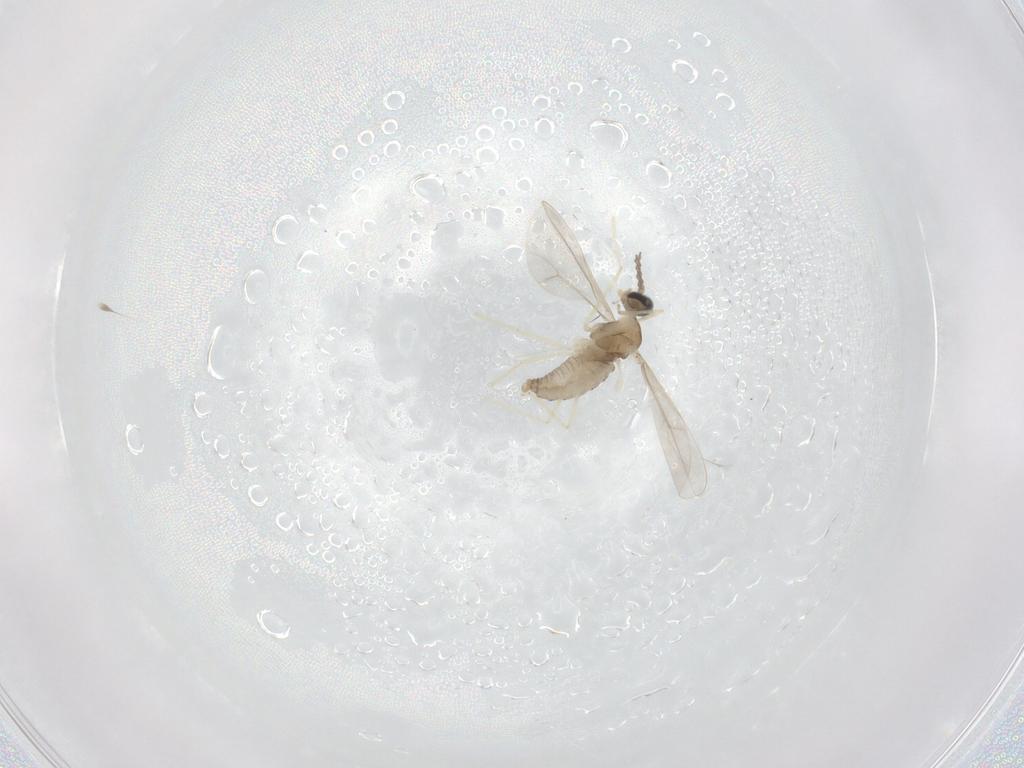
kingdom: Animalia
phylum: Arthropoda
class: Insecta
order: Diptera
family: Cecidomyiidae
